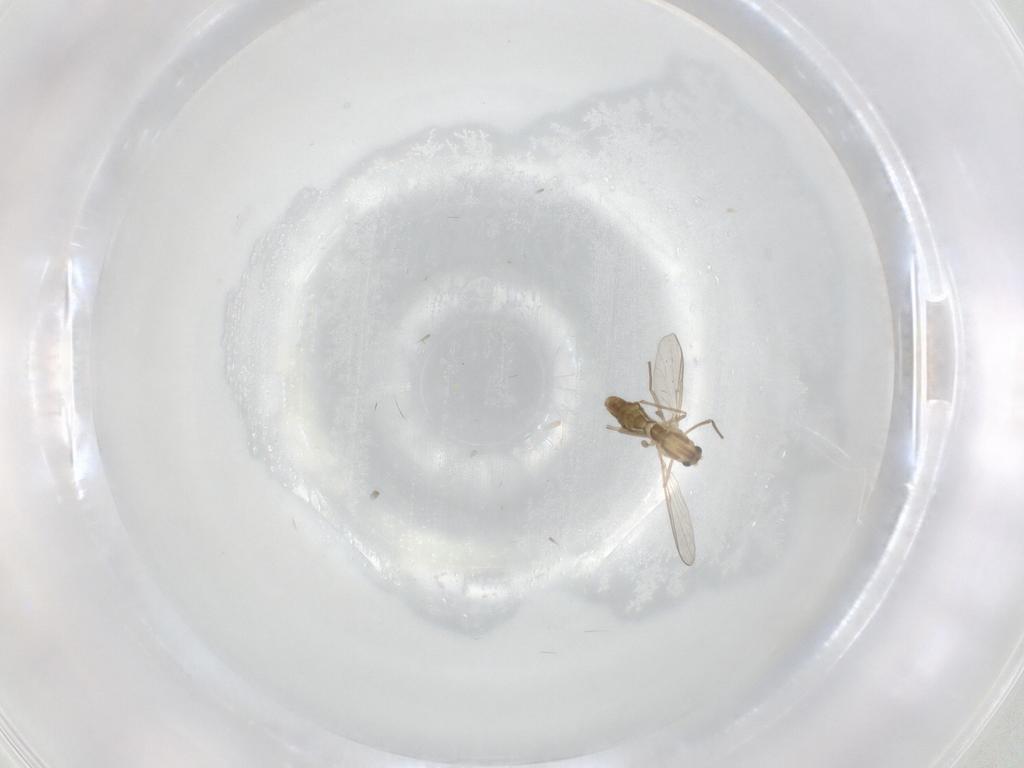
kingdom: Animalia
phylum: Arthropoda
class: Insecta
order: Diptera
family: Chironomidae
